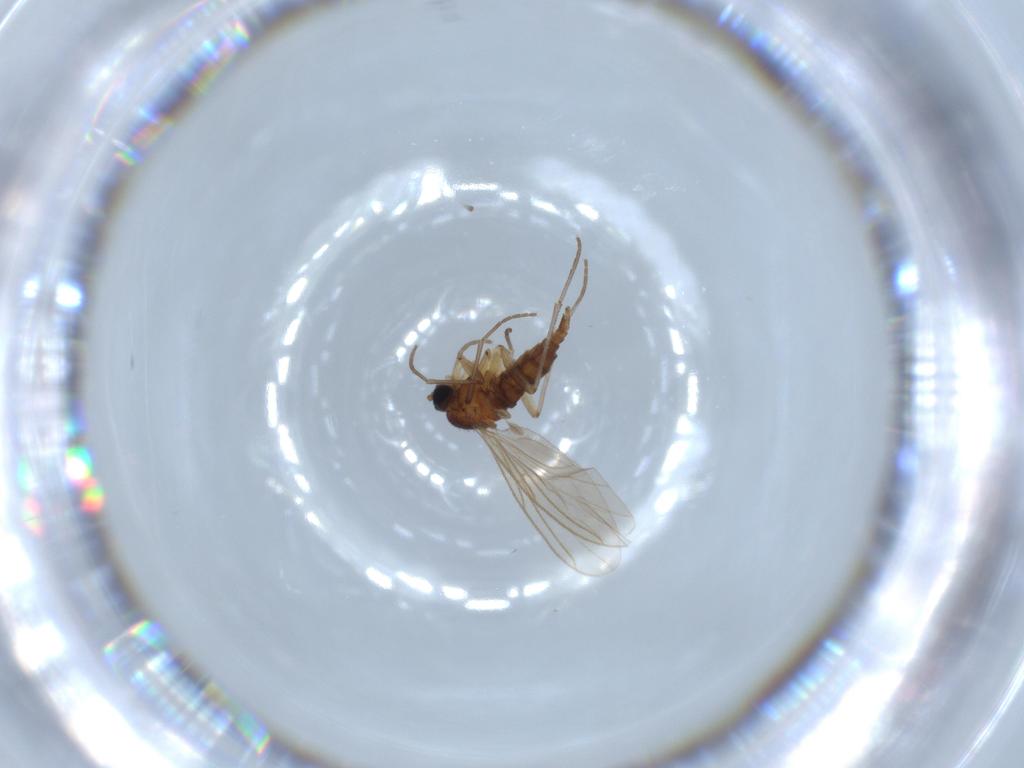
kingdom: Animalia
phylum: Arthropoda
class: Insecta
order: Diptera
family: Sciaridae
